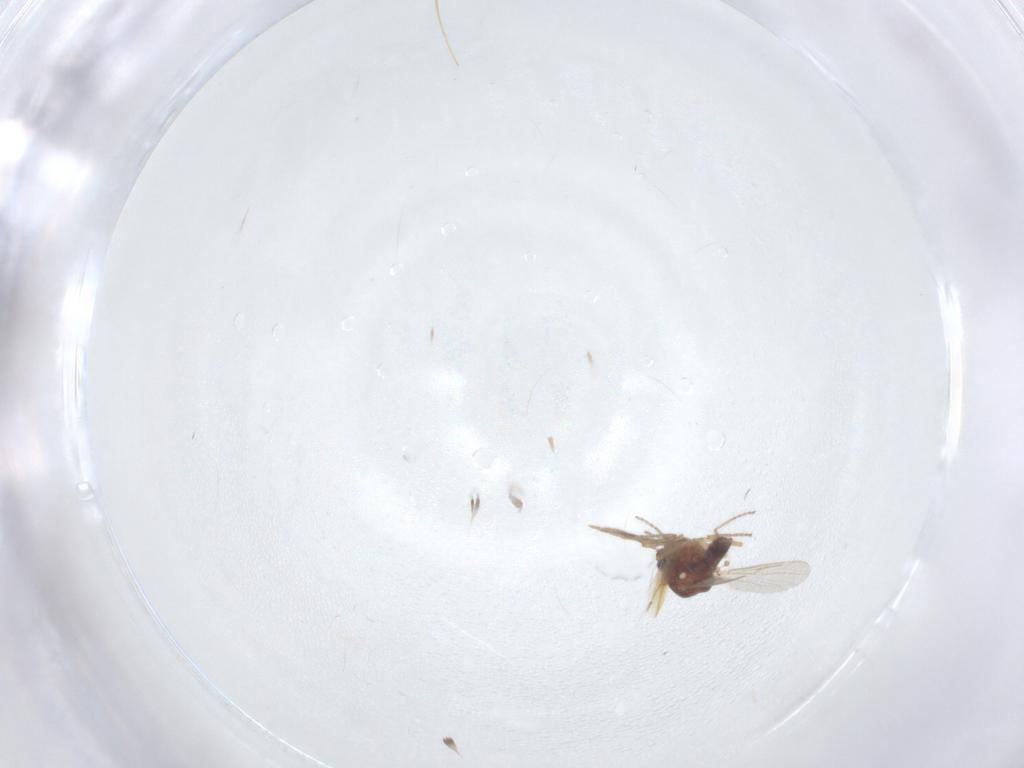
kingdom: Animalia
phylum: Arthropoda
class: Insecta
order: Diptera
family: Ceratopogonidae
